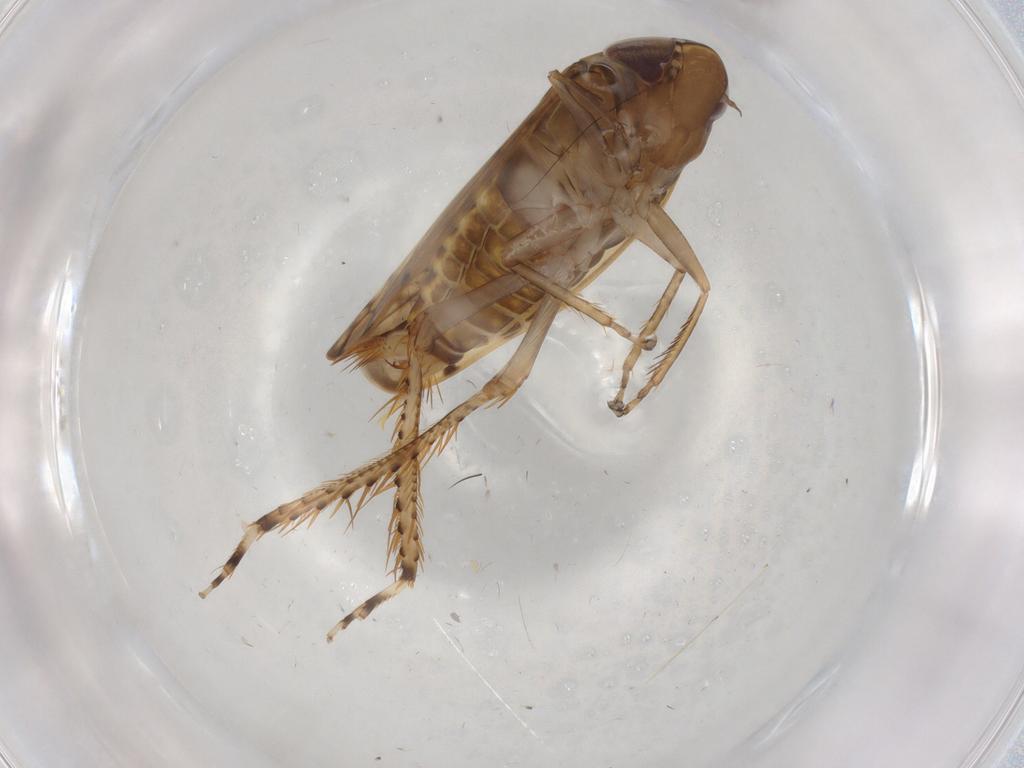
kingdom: Animalia
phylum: Arthropoda
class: Insecta
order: Hemiptera
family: Cicadellidae
